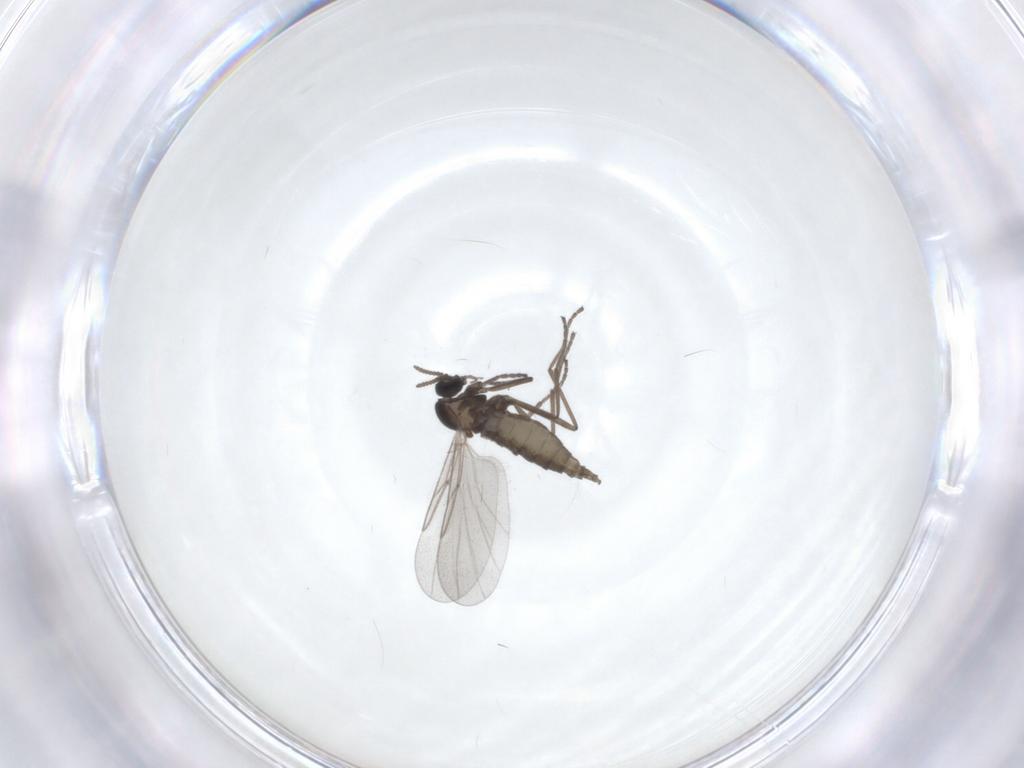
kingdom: Animalia
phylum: Arthropoda
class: Insecta
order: Diptera
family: Cecidomyiidae
